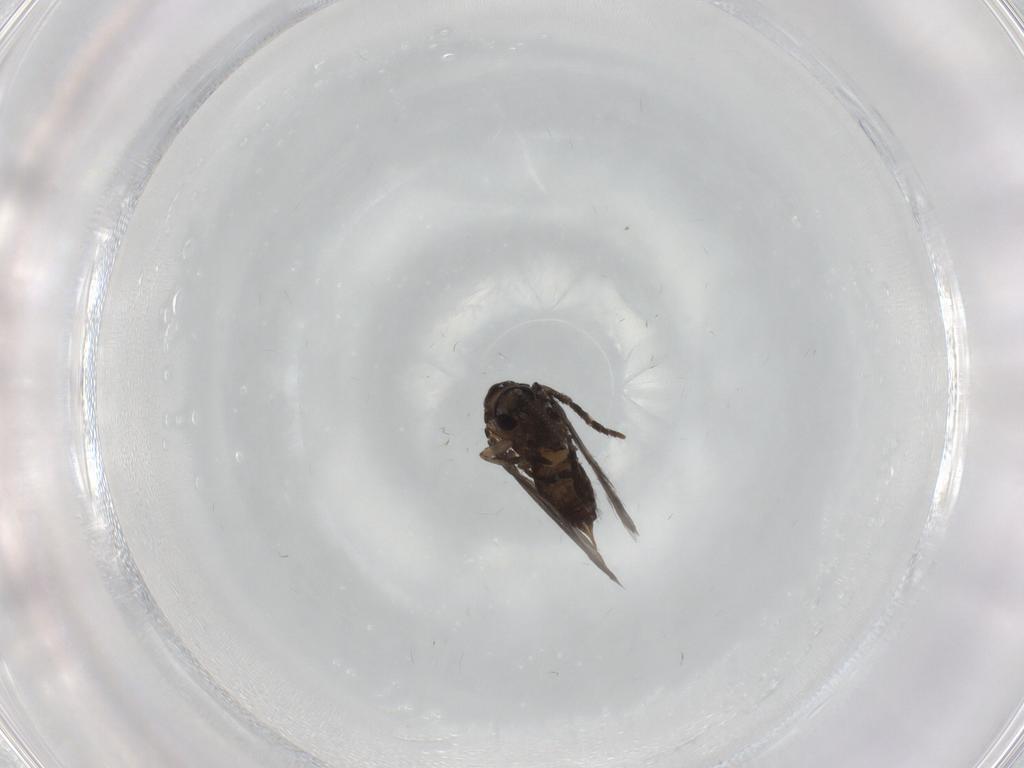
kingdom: Animalia
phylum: Arthropoda
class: Insecta
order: Diptera
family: Psychodidae
